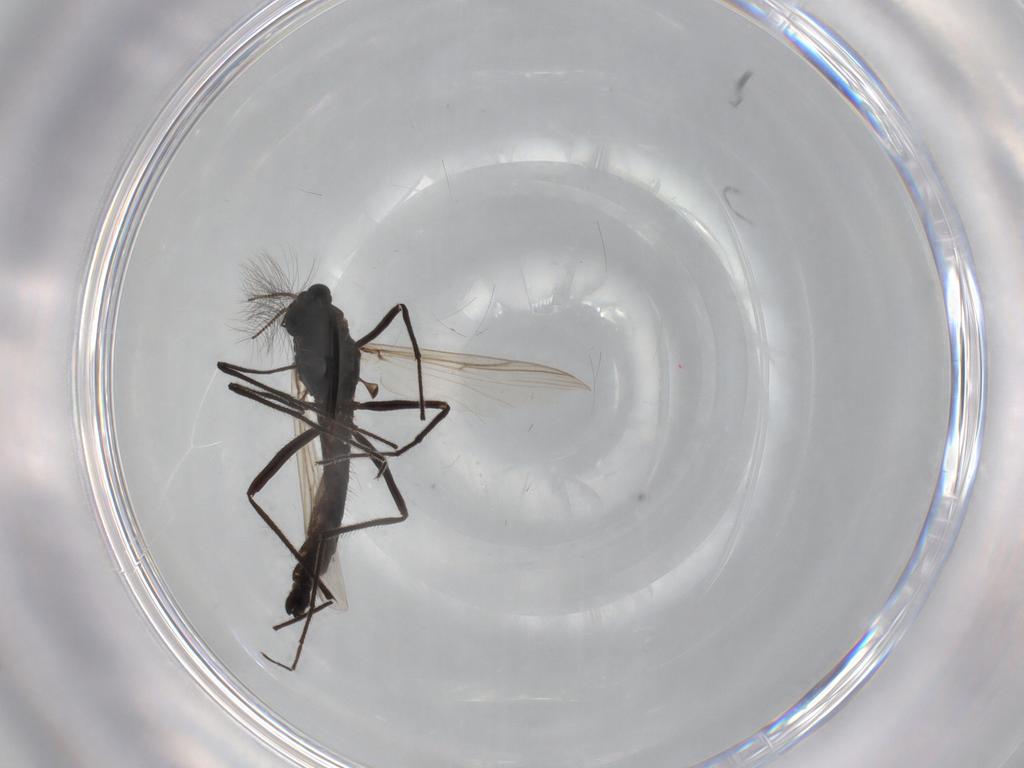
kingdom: Animalia
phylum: Arthropoda
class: Insecta
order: Diptera
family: Chironomidae
